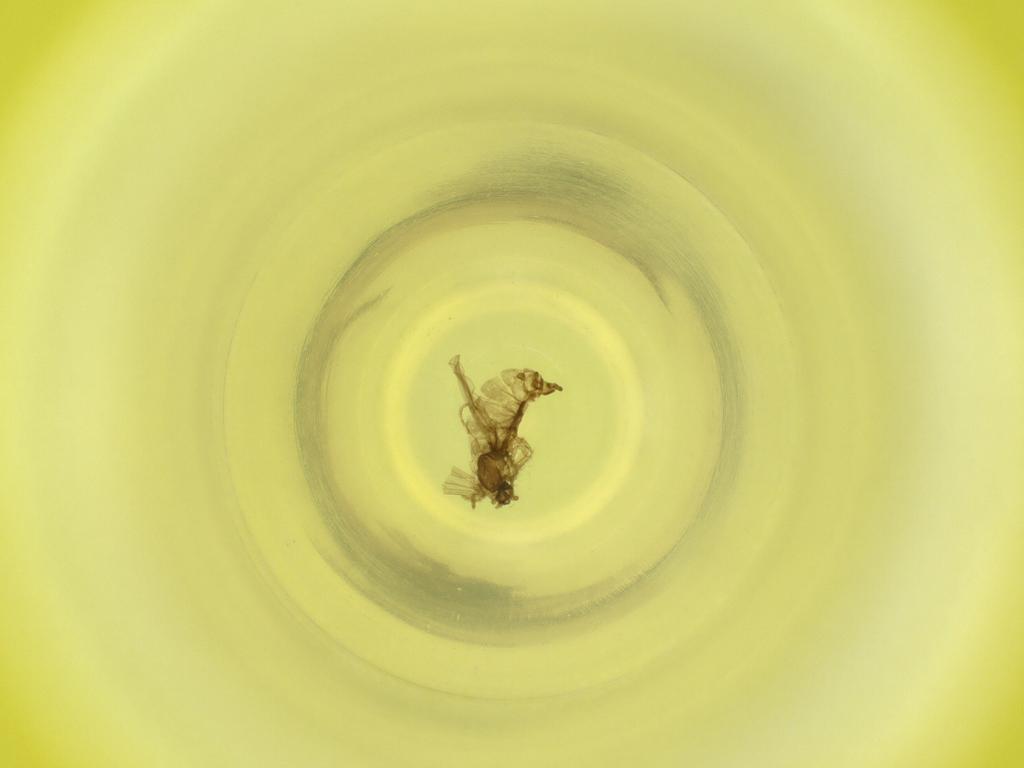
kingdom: Animalia
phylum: Arthropoda
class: Insecta
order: Diptera
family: Cecidomyiidae
